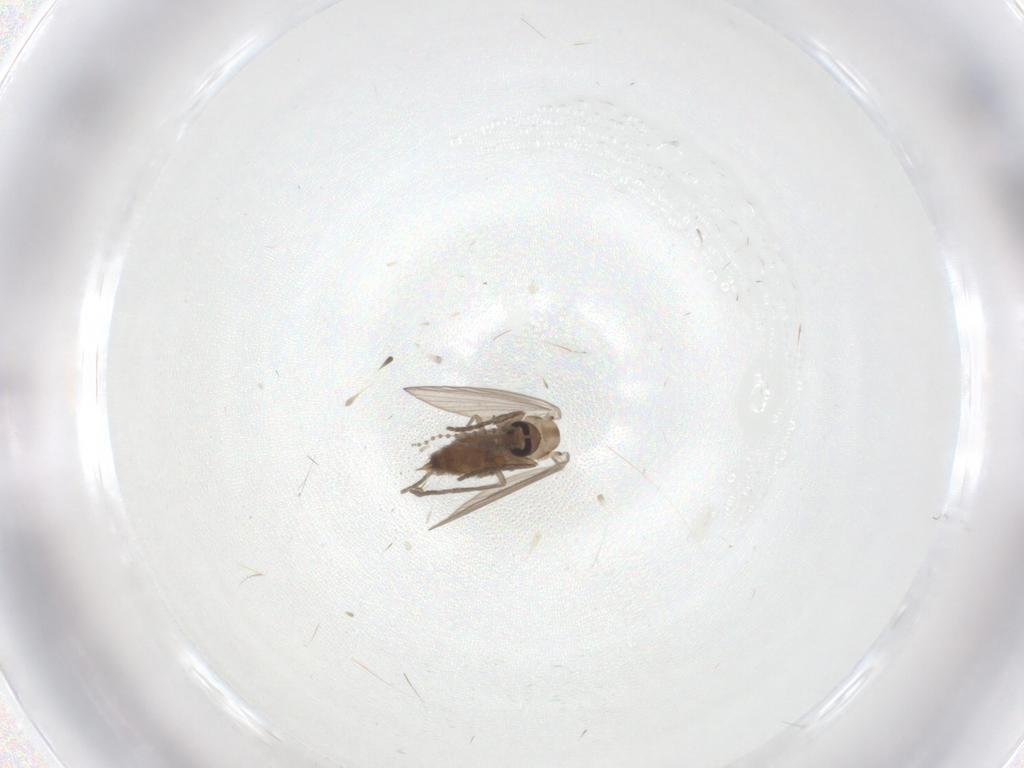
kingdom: Animalia
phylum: Arthropoda
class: Insecta
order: Diptera
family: Psychodidae
